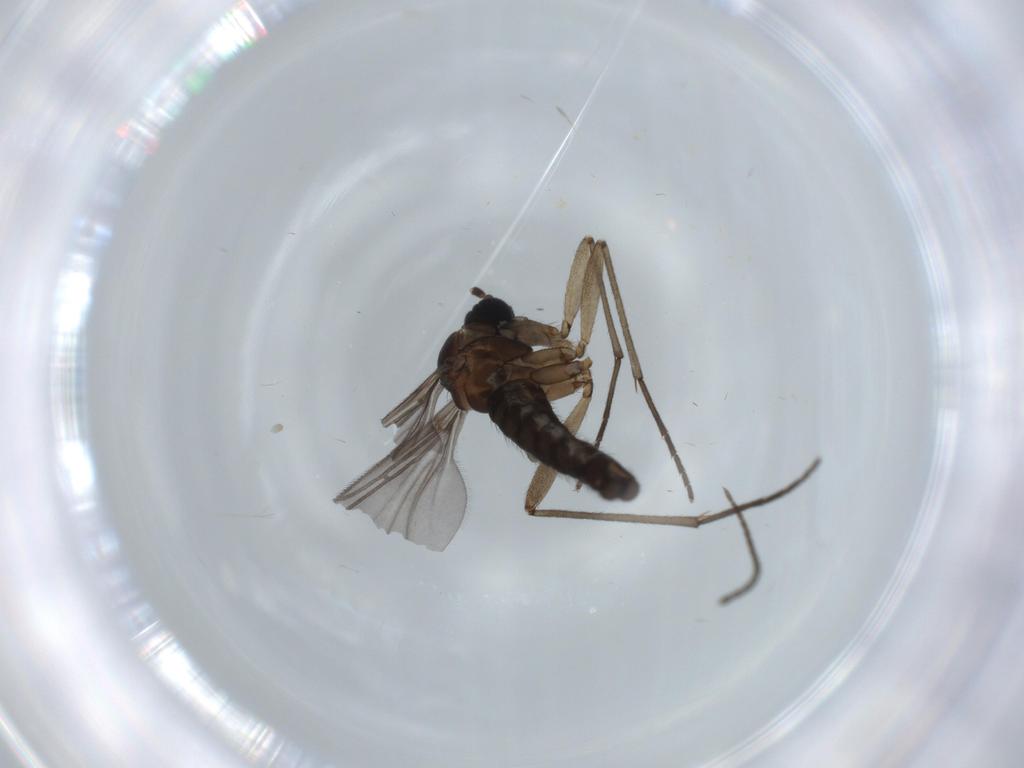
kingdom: Animalia
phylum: Arthropoda
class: Insecta
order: Diptera
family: Sciaridae
